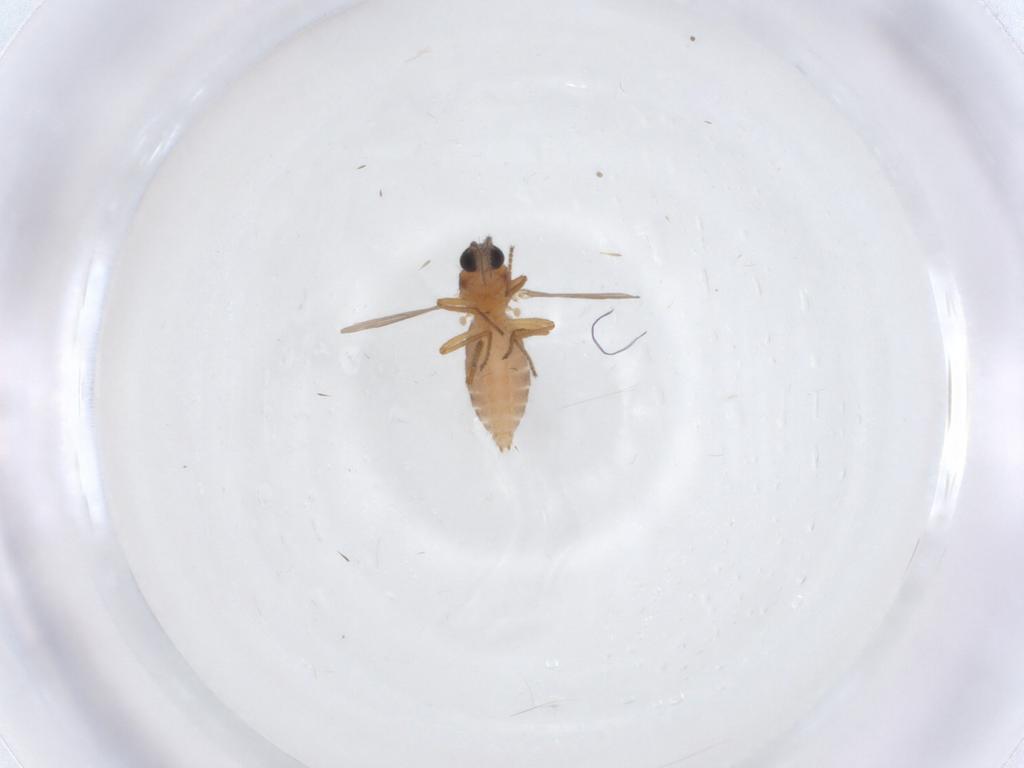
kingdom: Animalia
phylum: Arthropoda
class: Insecta
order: Diptera
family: Ceratopogonidae
